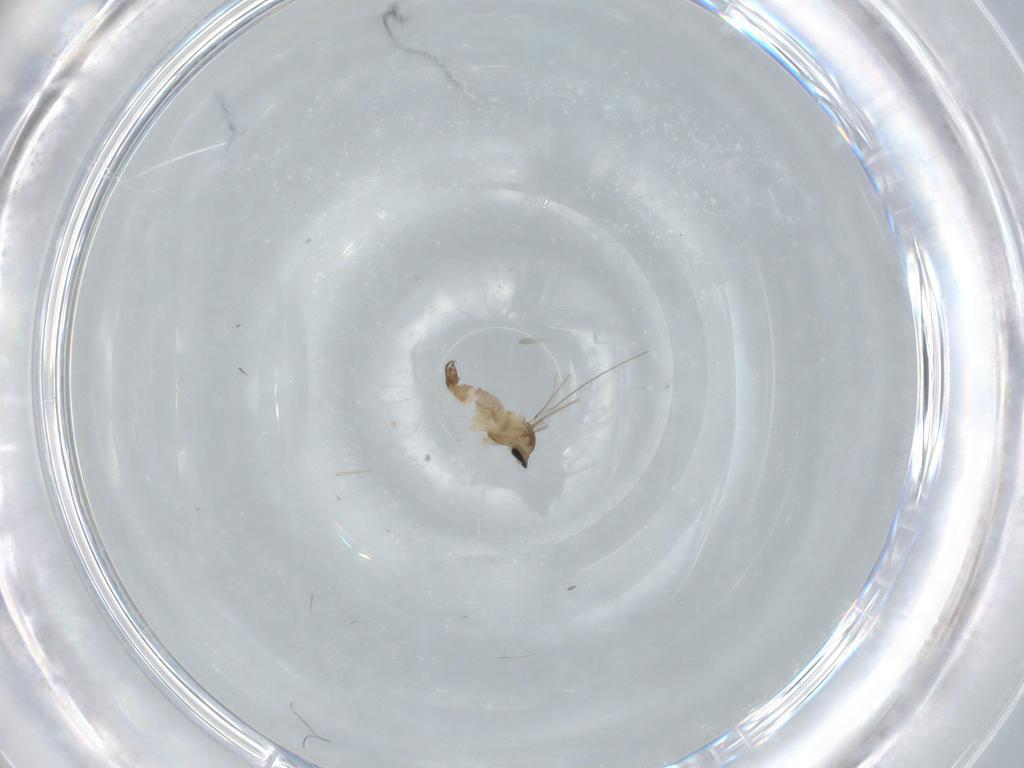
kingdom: Animalia
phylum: Arthropoda
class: Insecta
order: Diptera
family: Cecidomyiidae
